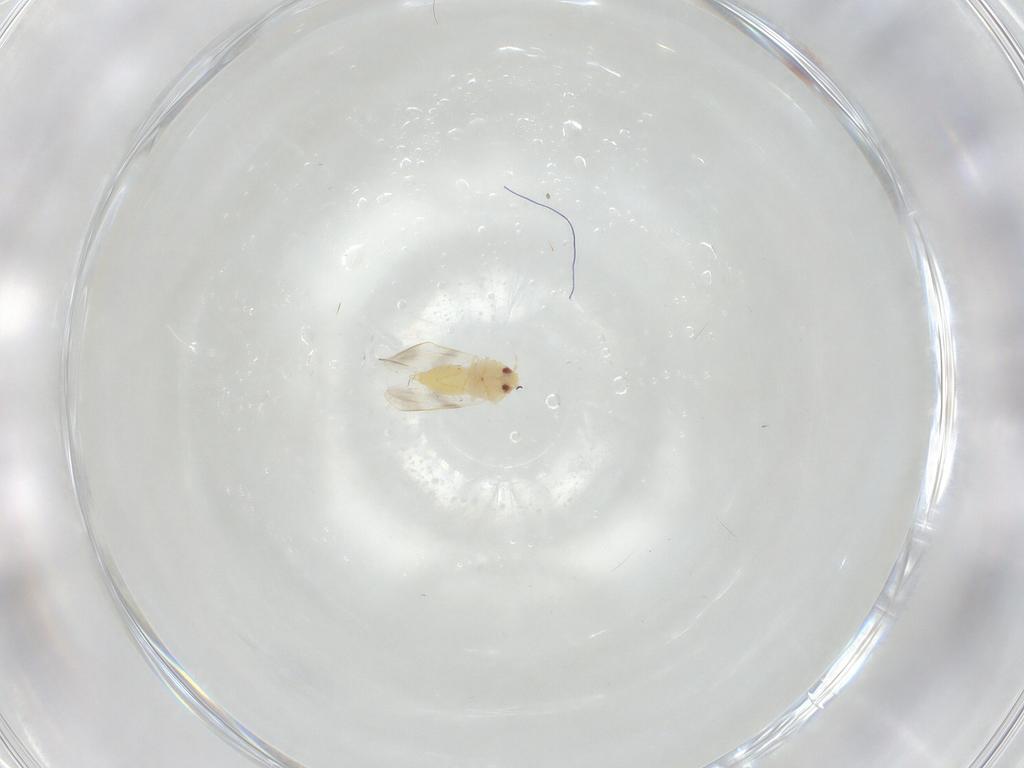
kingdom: Animalia
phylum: Arthropoda
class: Insecta
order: Hemiptera
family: Aleyrodidae
